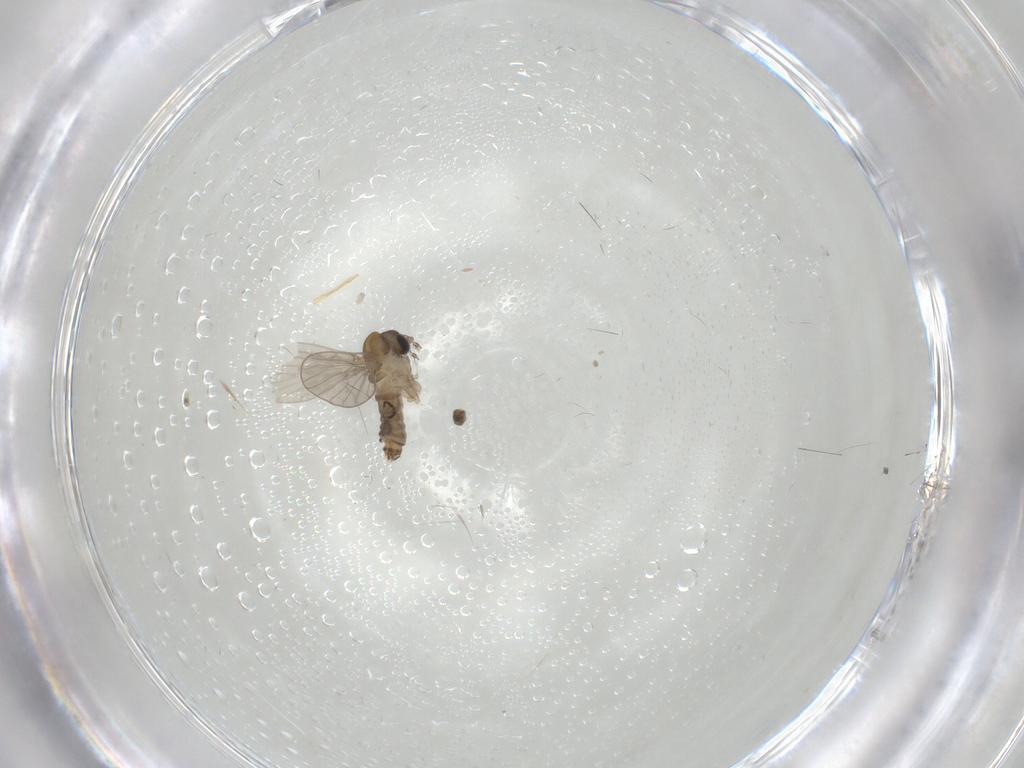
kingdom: Animalia
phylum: Arthropoda
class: Insecta
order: Diptera
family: Psychodidae
